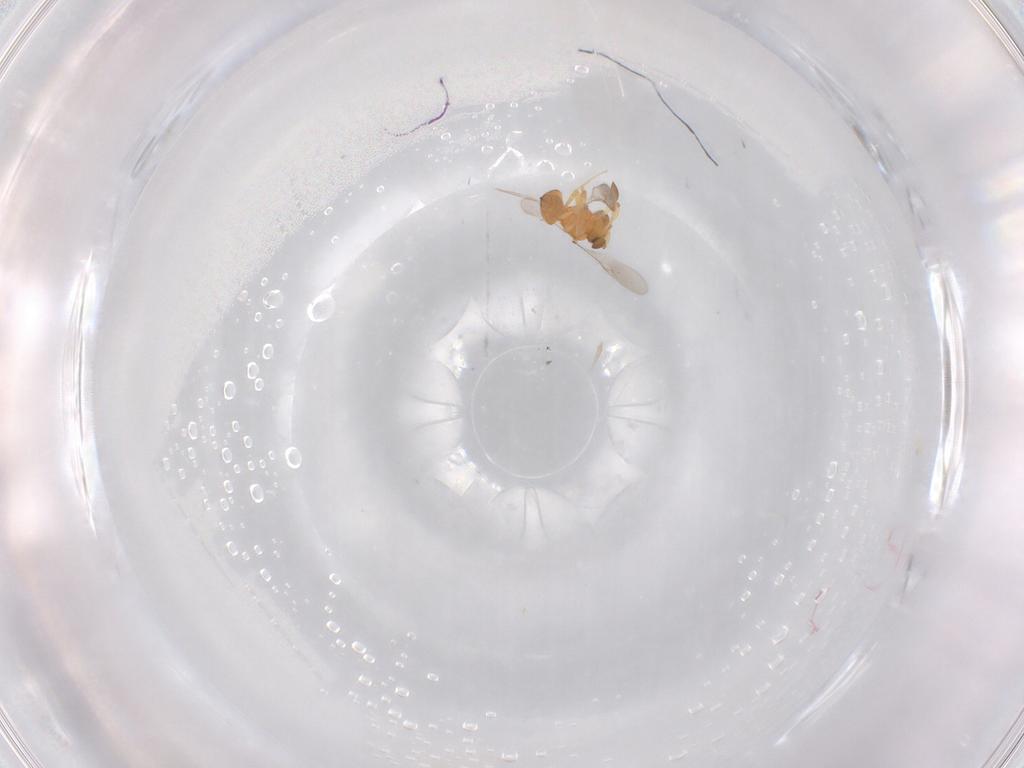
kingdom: Animalia
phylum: Arthropoda
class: Insecta
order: Hymenoptera
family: Scelionidae
